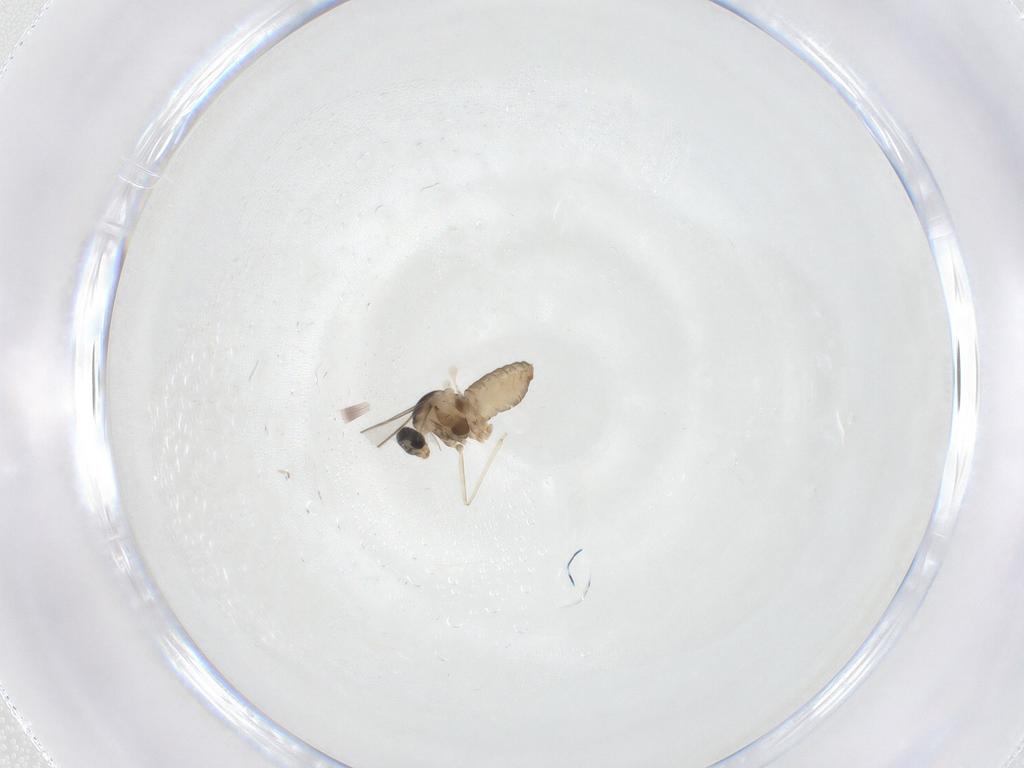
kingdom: Animalia
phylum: Arthropoda
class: Insecta
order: Diptera
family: Cecidomyiidae
